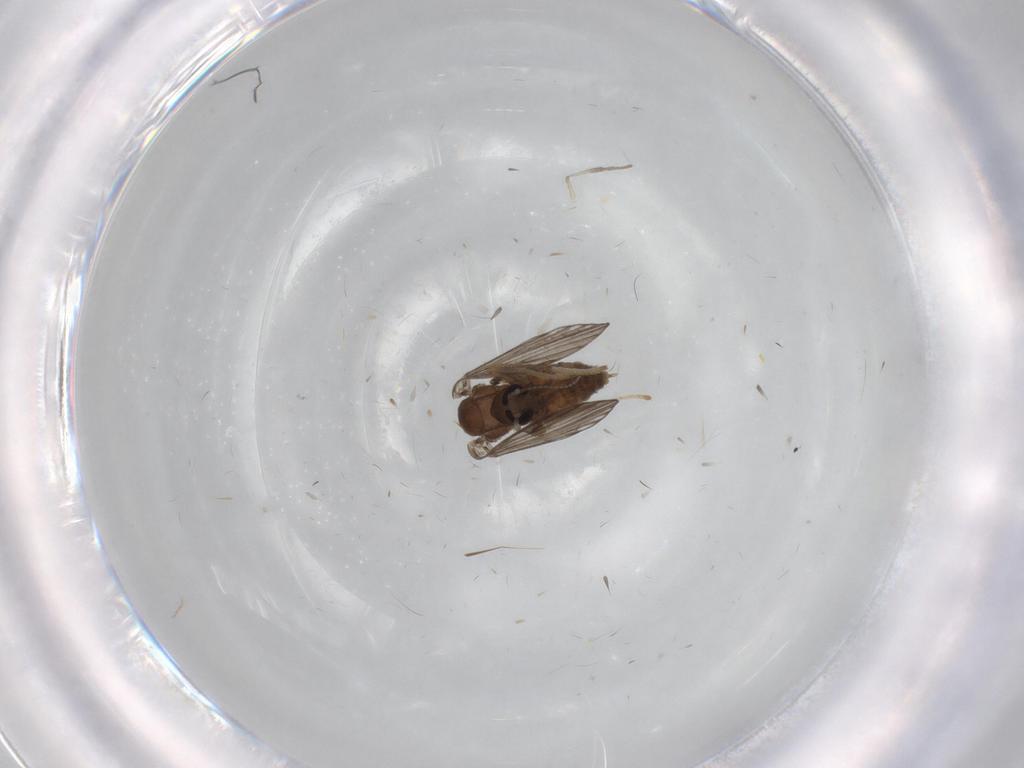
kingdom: Animalia
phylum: Arthropoda
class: Insecta
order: Diptera
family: Psychodidae
